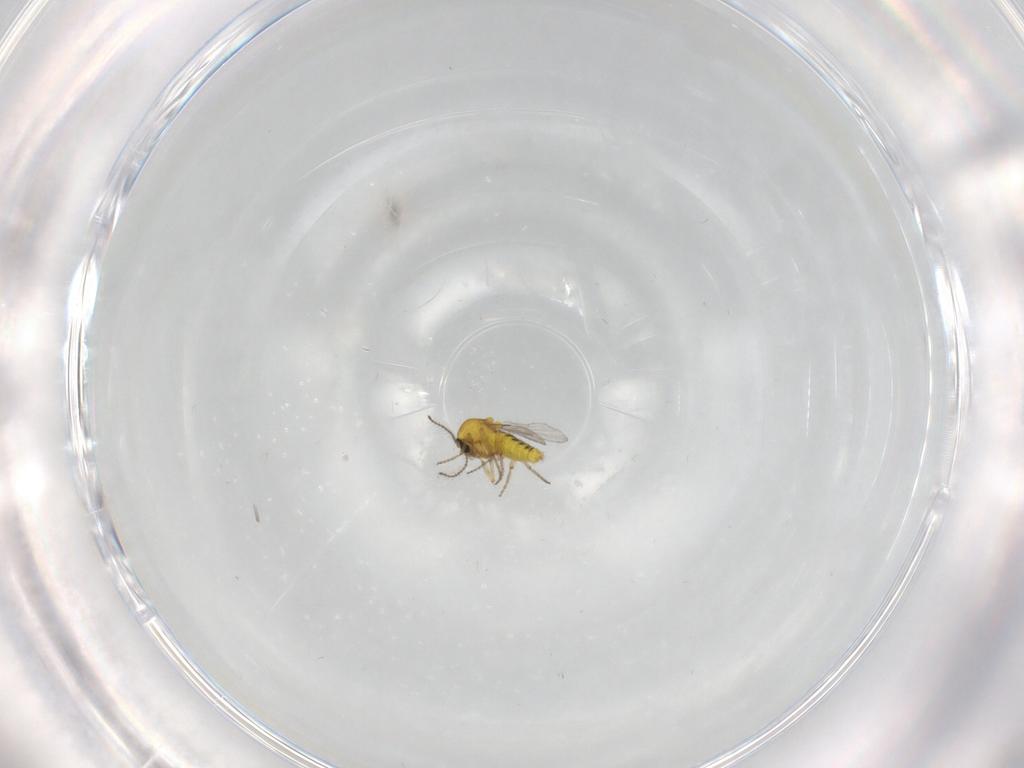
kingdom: Animalia
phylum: Arthropoda
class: Insecta
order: Diptera
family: Ceratopogonidae
